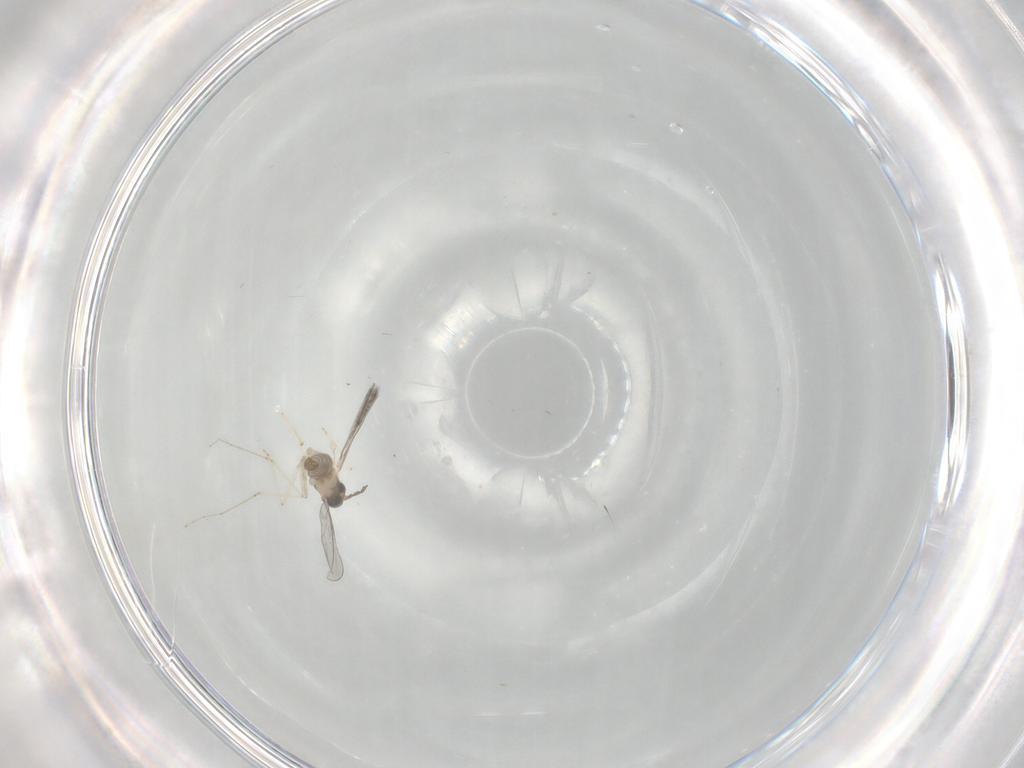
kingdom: Animalia
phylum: Arthropoda
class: Insecta
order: Diptera
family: Cecidomyiidae
